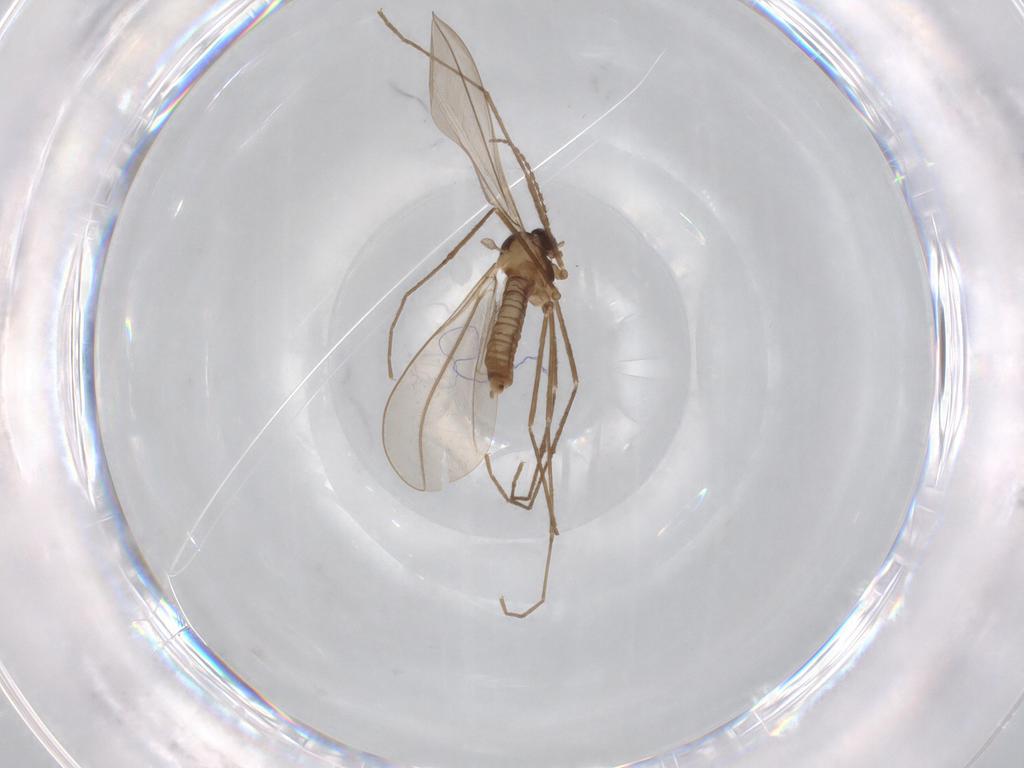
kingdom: Animalia
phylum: Arthropoda
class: Insecta
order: Diptera
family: Cecidomyiidae
